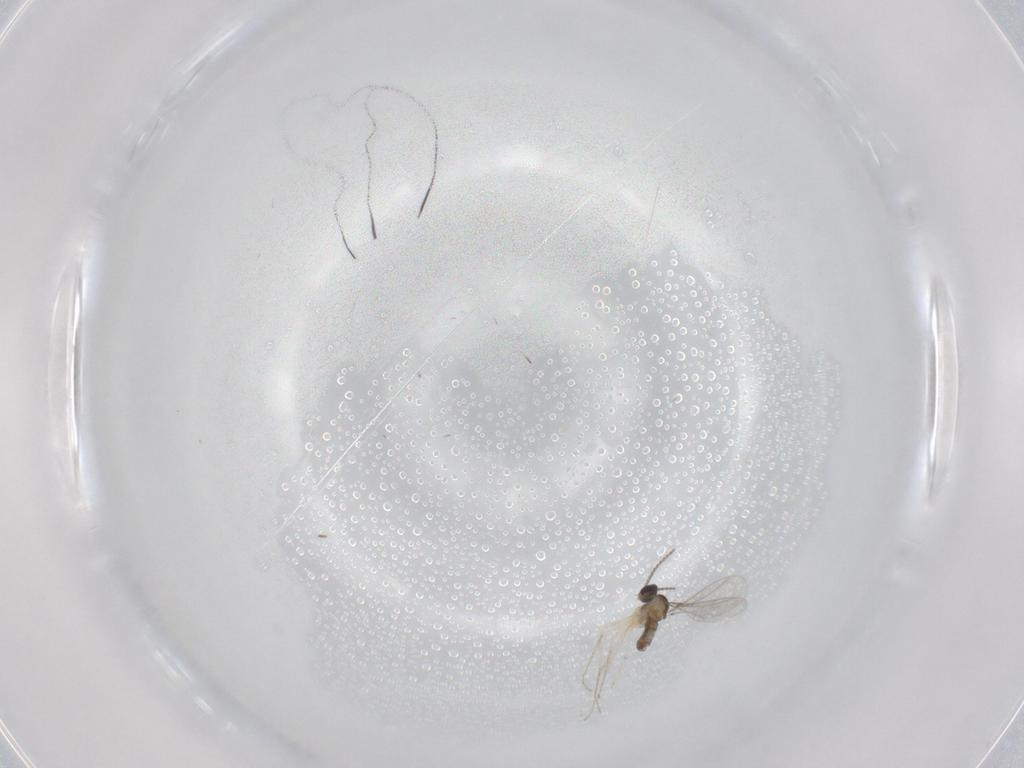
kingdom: Animalia
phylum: Arthropoda
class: Insecta
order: Diptera
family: Cecidomyiidae
